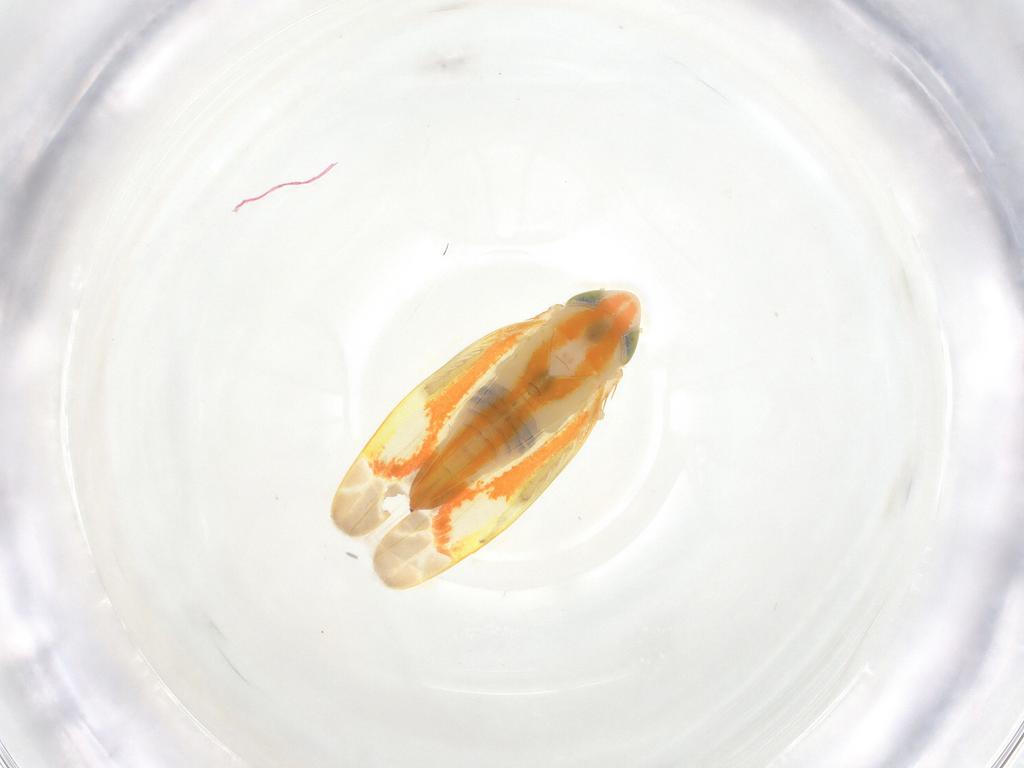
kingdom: Animalia
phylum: Arthropoda
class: Insecta
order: Hemiptera
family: Cicadellidae
